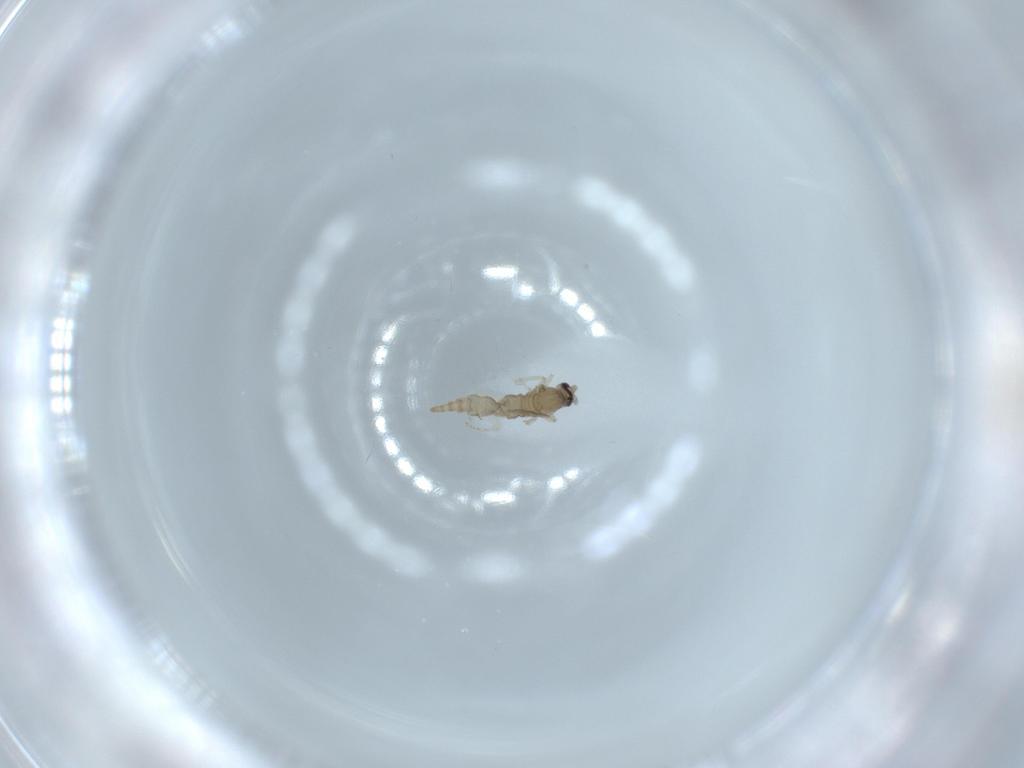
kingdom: Animalia
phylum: Arthropoda
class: Insecta
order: Diptera
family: Cecidomyiidae
